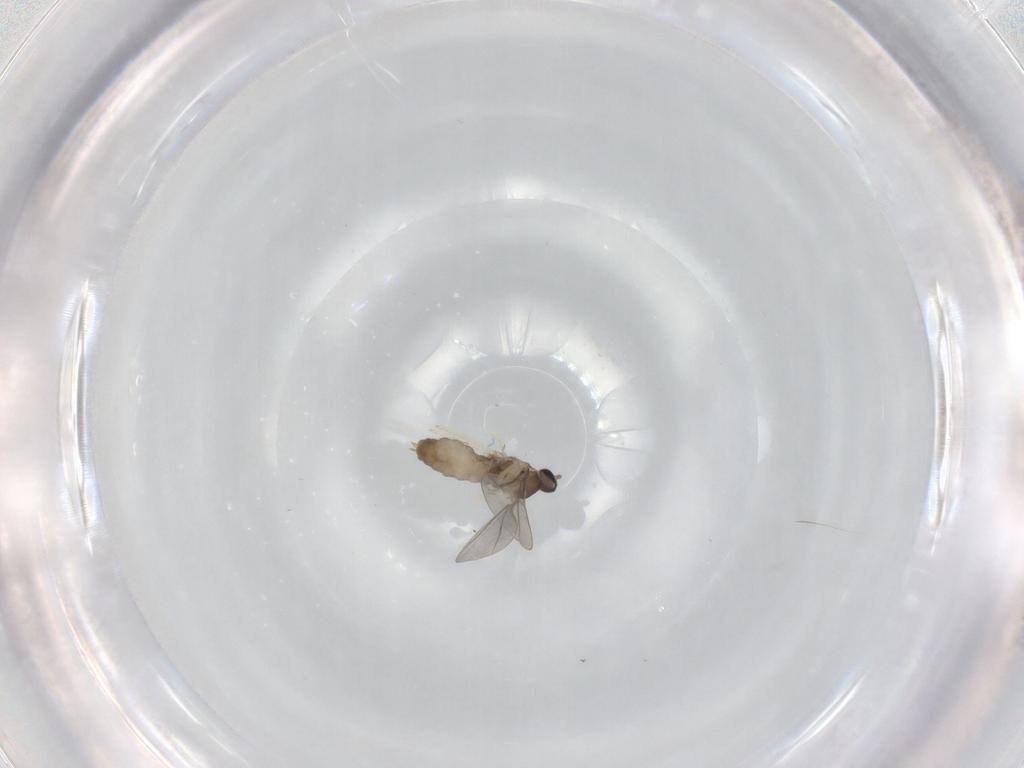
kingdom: Animalia
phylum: Arthropoda
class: Insecta
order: Diptera
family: Cecidomyiidae
